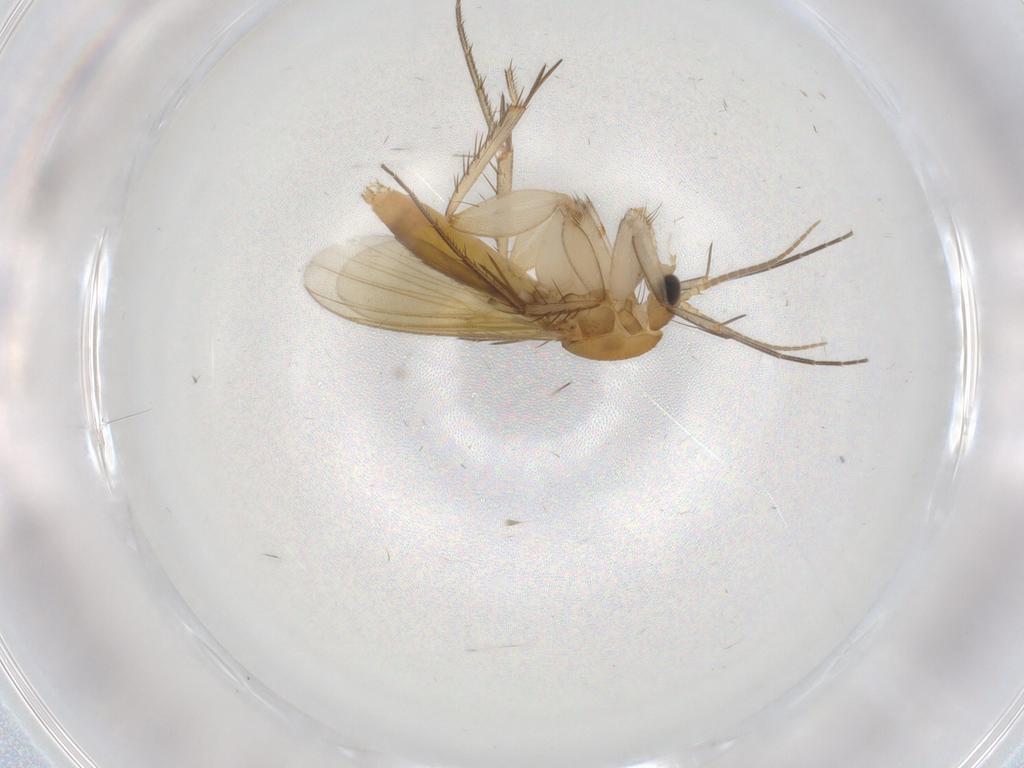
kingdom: Animalia
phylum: Arthropoda
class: Insecta
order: Diptera
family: Mycetophilidae
